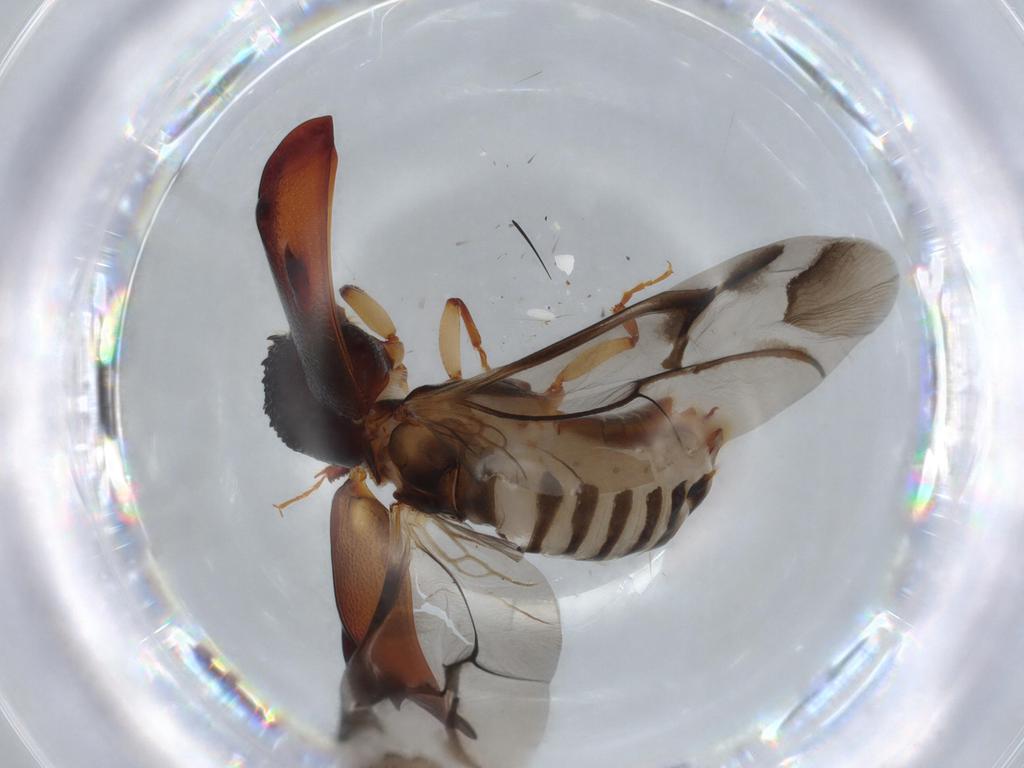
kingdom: Animalia
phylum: Arthropoda
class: Insecta
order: Coleoptera
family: Bostrichidae
